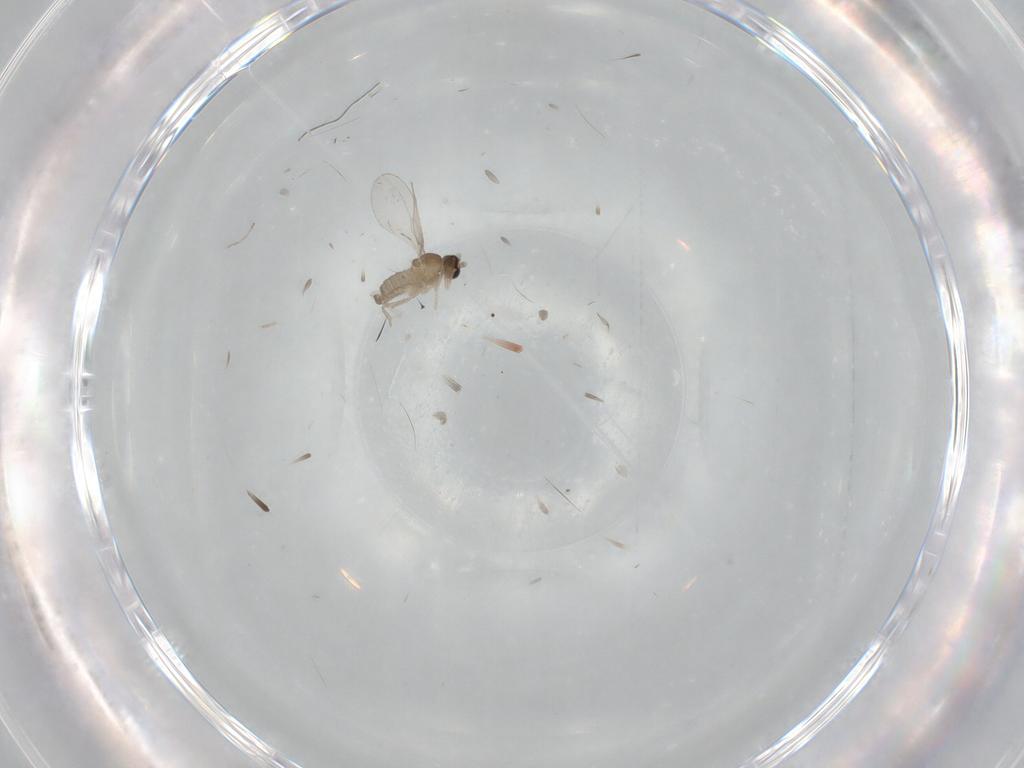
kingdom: Animalia
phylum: Arthropoda
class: Insecta
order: Diptera
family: Cecidomyiidae
